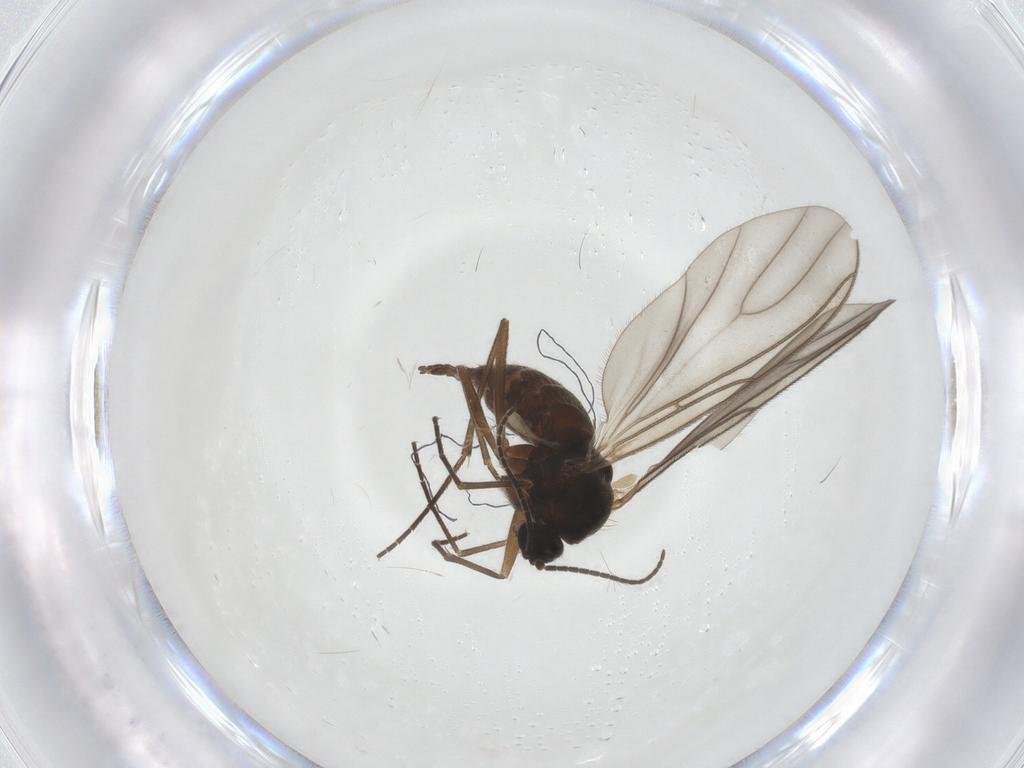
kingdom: Animalia
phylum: Arthropoda
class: Insecta
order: Diptera
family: Sciaridae
